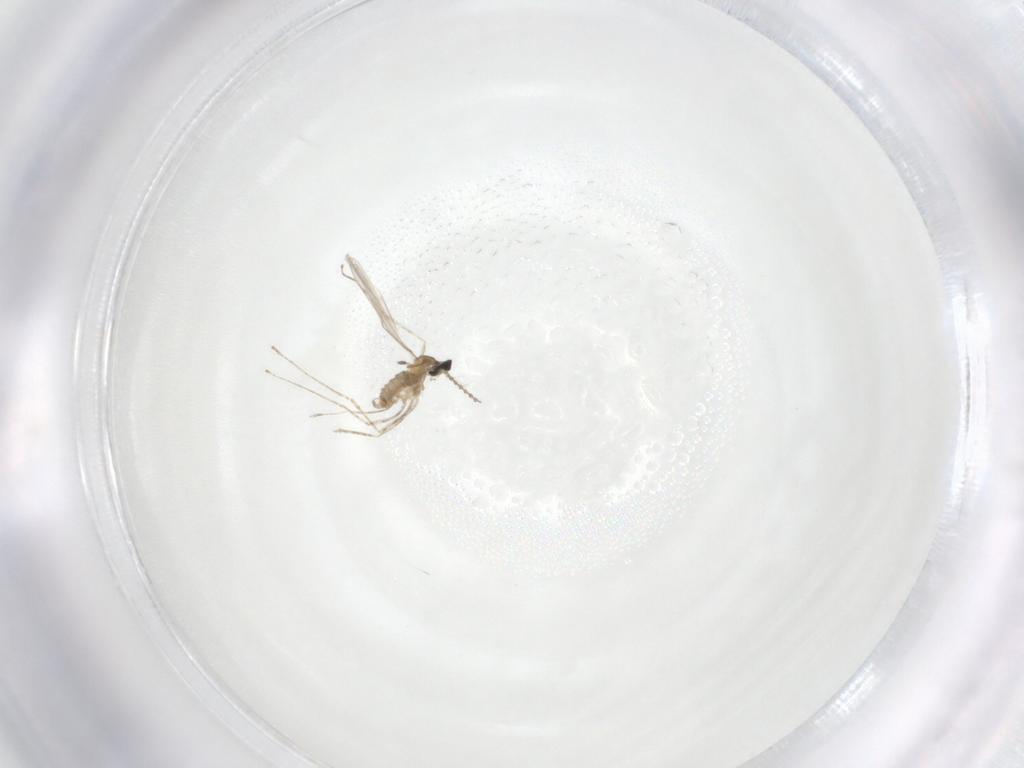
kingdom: Animalia
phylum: Arthropoda
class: Insecta
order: Diptera
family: Cecidomyiidae
